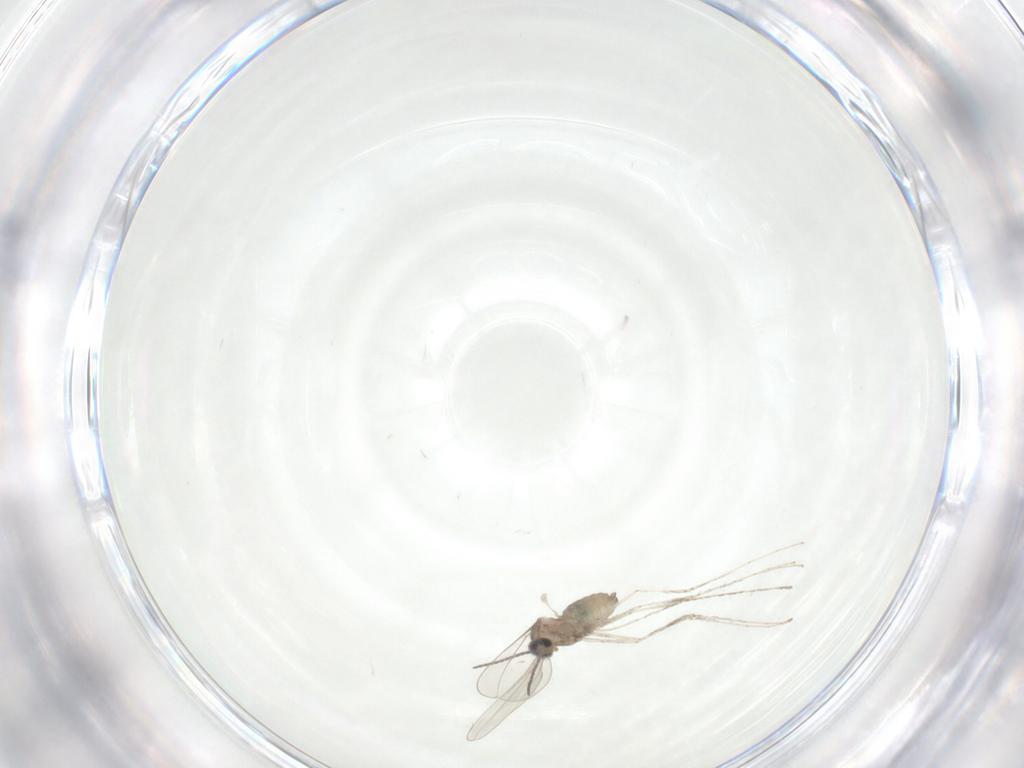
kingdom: Animalia
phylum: Arthropoda
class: Insecta
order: Diptera
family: Cecidomyiidae
